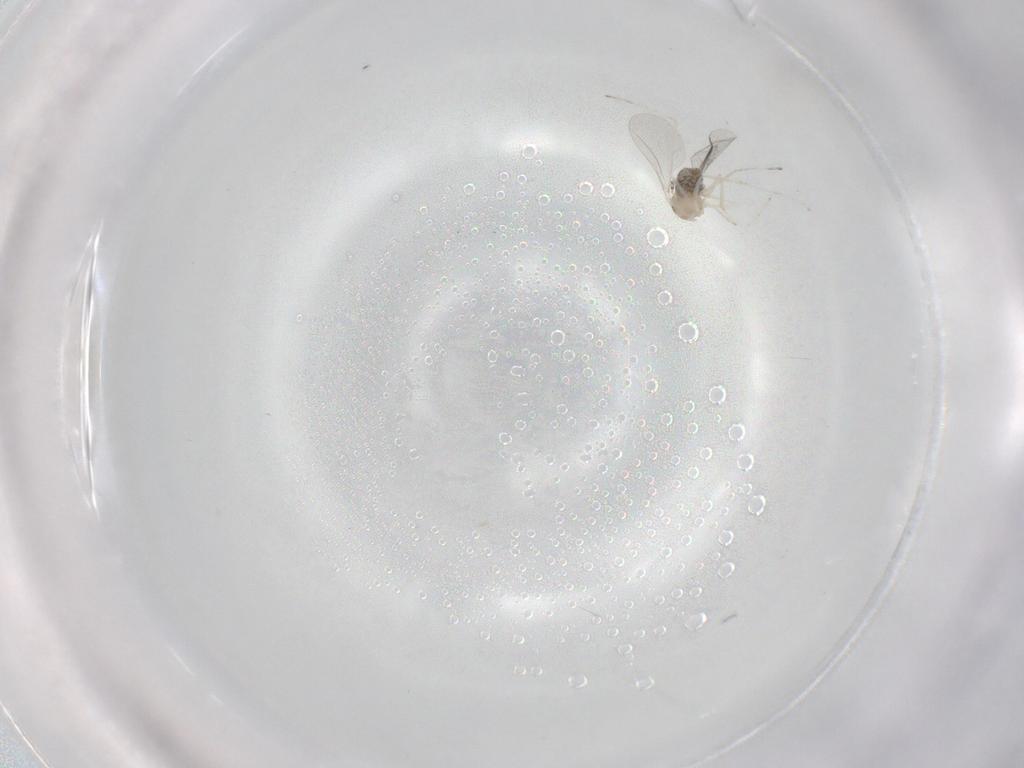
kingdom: Animalia
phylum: Arthropoda
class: Insecta
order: Diptera
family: Cecidomyiidae
